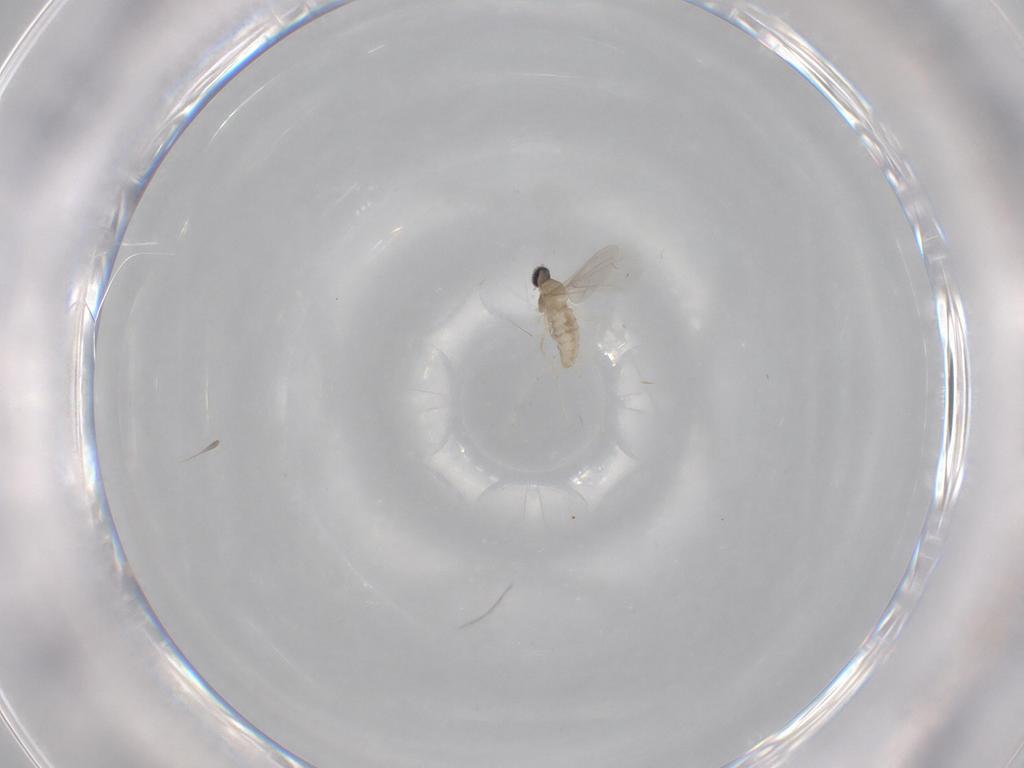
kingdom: Animalia
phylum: Arthropoda
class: Insecta
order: Diptera
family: Cecidomyiidae
